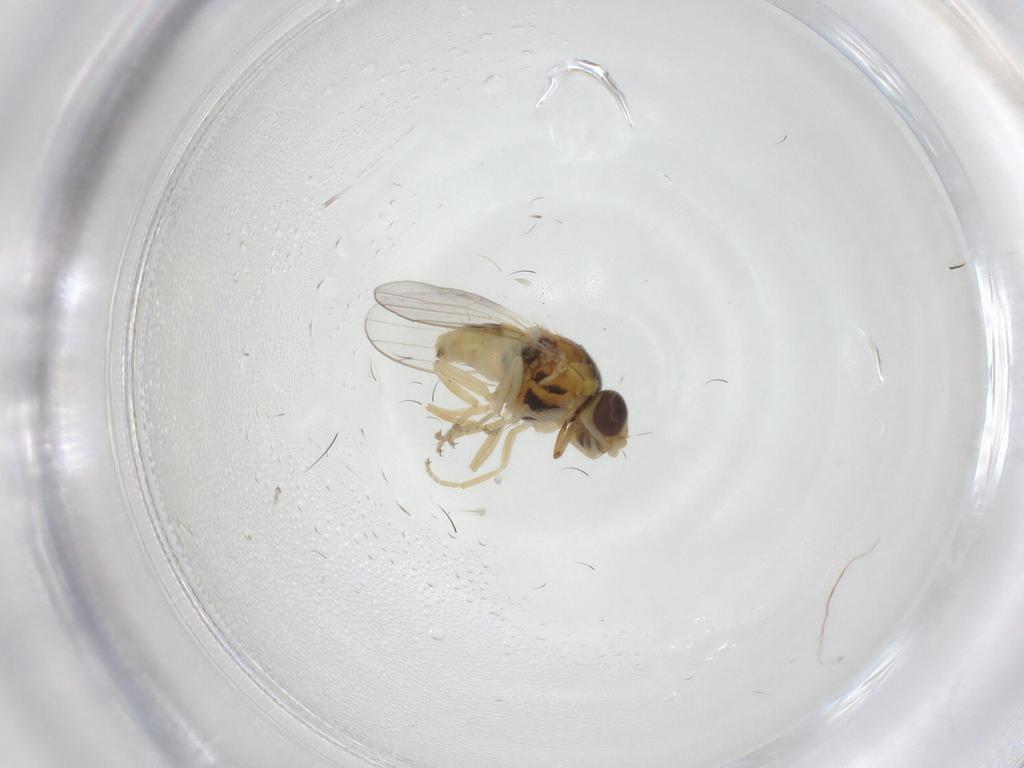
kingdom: Animalia
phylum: Arthropoda
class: Insecta
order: Diptera
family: Chloropidae
